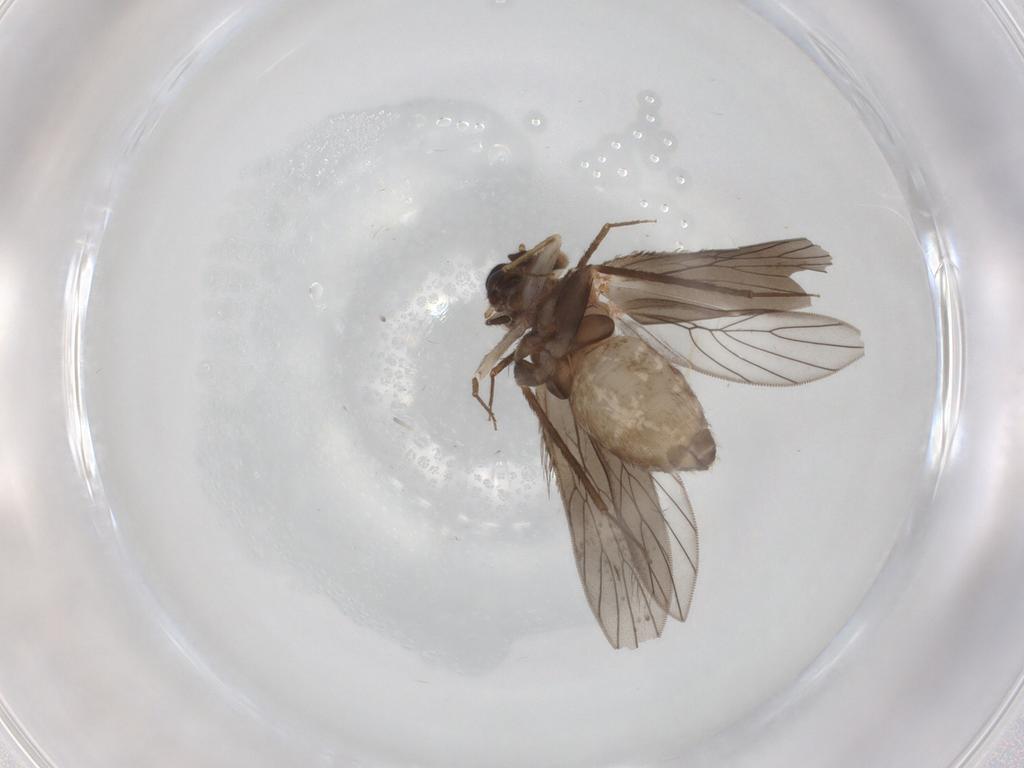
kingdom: Animalia
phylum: Arthropoda
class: Insecta
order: Psocodea
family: Lepidopsocidae
